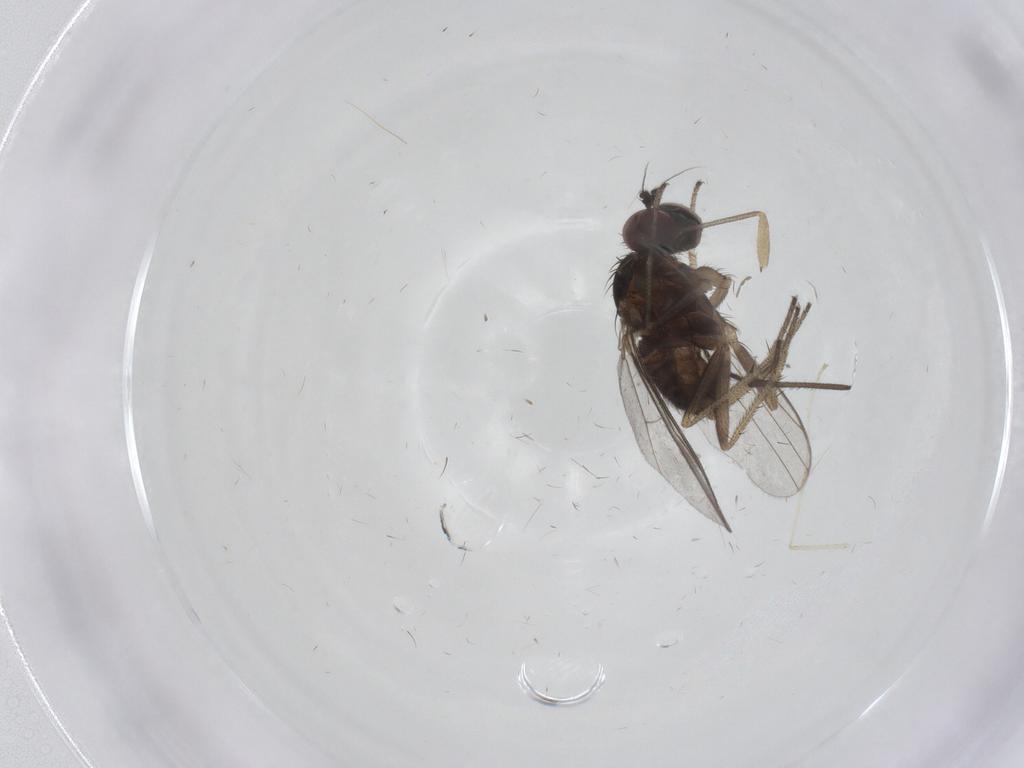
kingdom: Animalia
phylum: Arthropoda
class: Insecta
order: Diptera
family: Dolichopodidae
